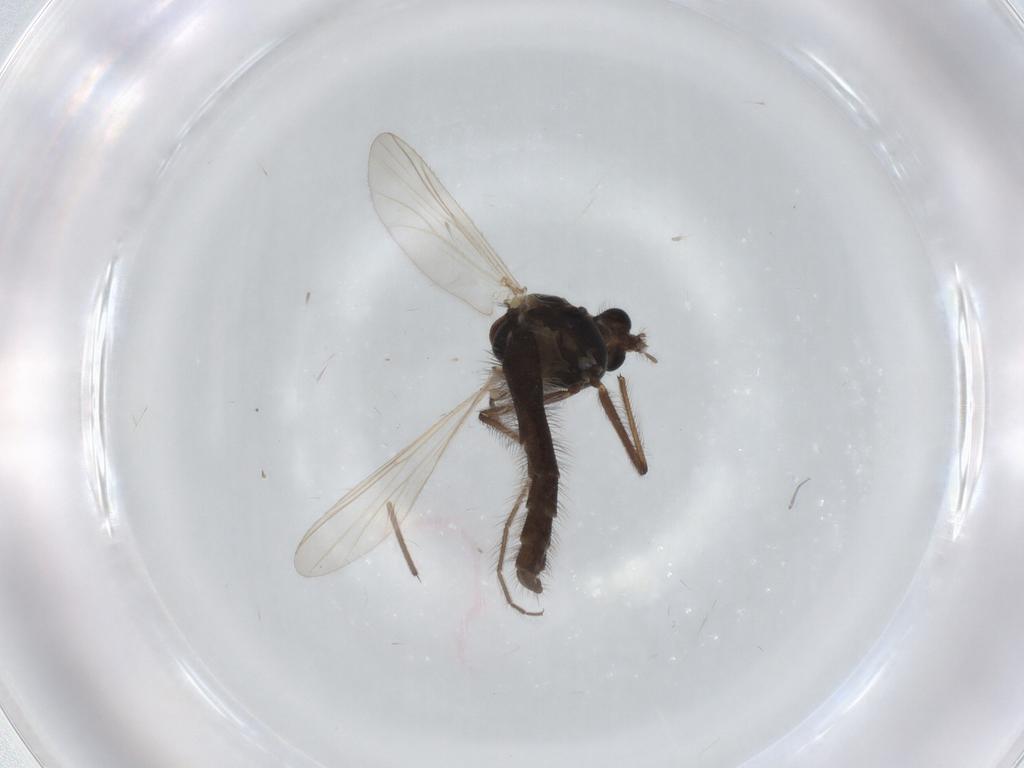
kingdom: Animalia
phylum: Arthropoda
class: Insecta
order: Diptera
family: Chironomidae
